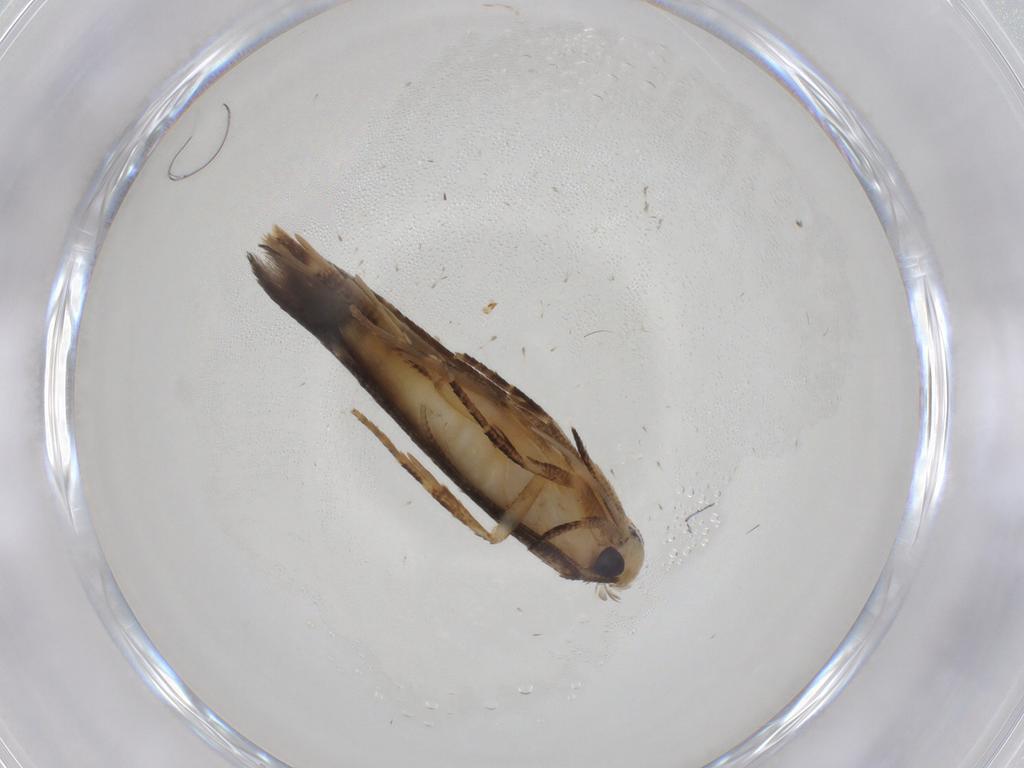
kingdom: Animalia
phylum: Arthropoda
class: Insecta
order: Lepidoptera
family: Cosmopterigidae
